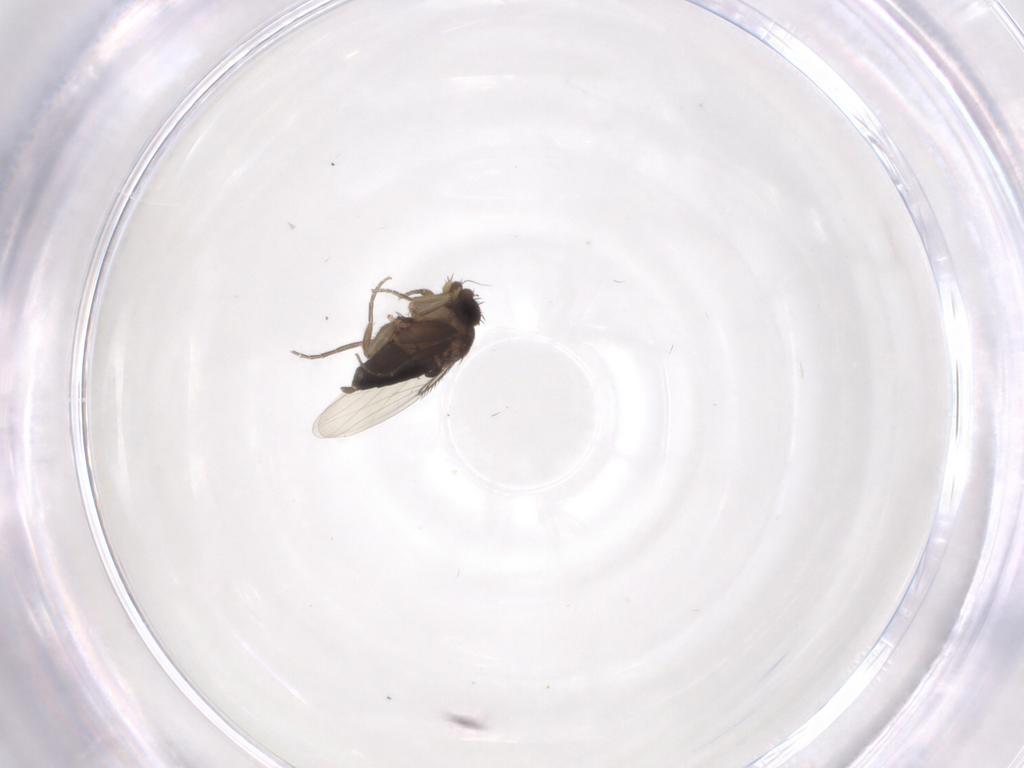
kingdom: Animalia
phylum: Arthropoda
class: Insecta
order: Diptera
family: Phoridae
